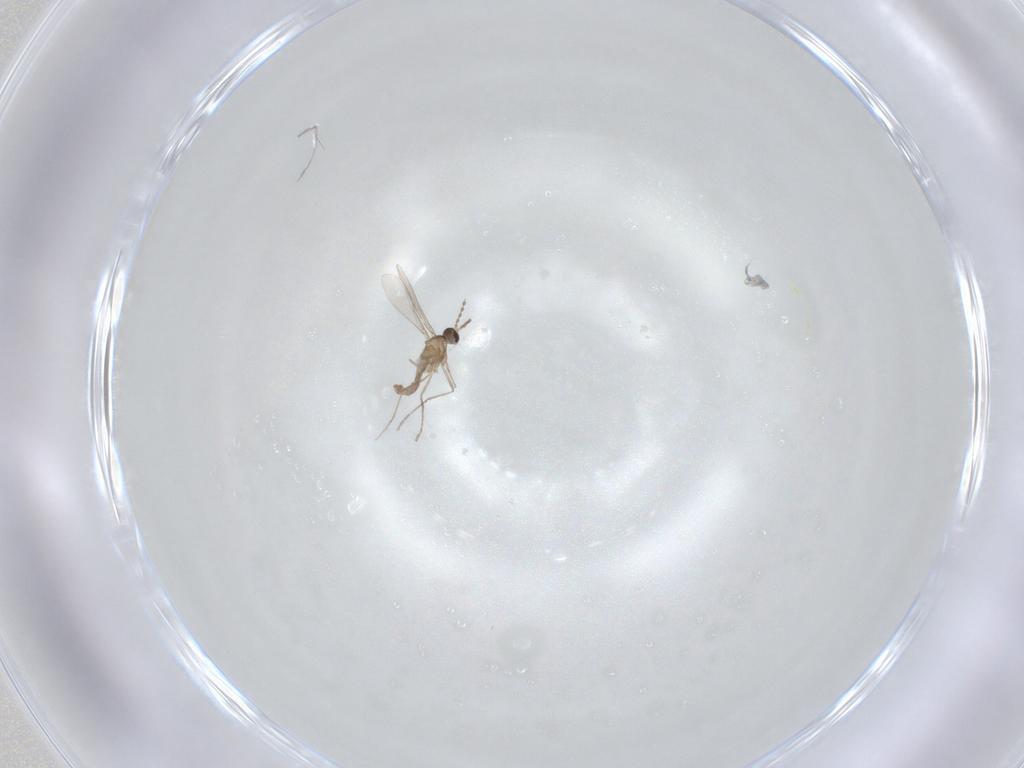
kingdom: Animalia
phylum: Arthropoda
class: Insecta
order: Diptera
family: Cecidomyiidae
